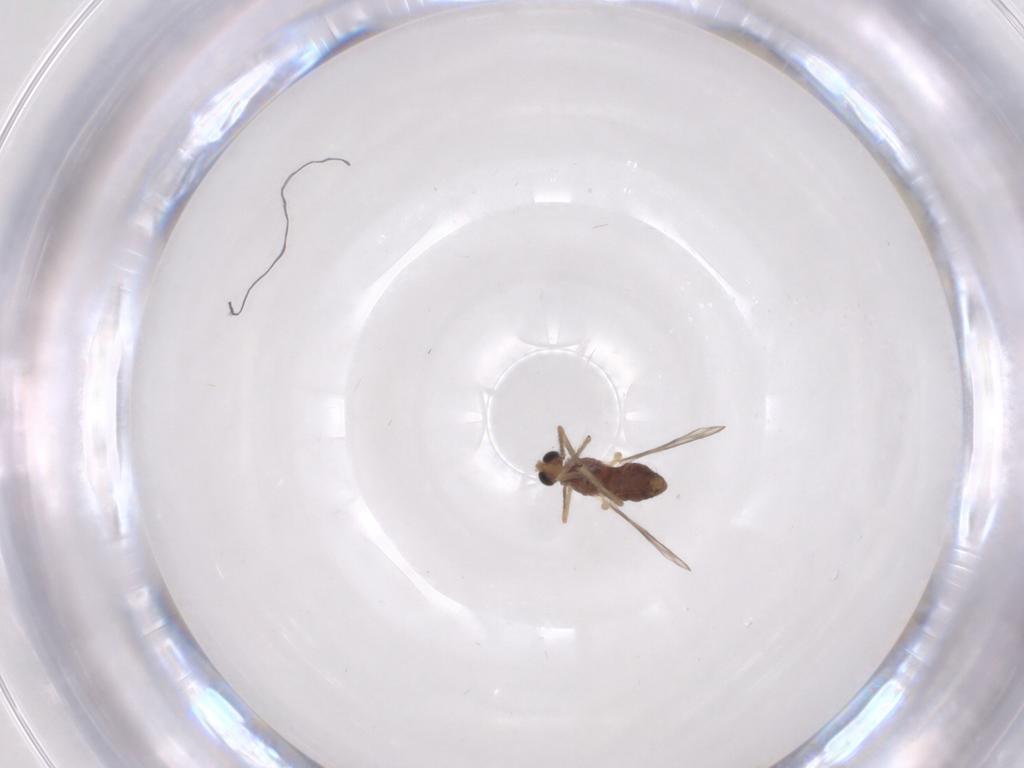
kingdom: Animalia
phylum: Arthropoda
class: Insecta
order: Diptera
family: Chironomidae
